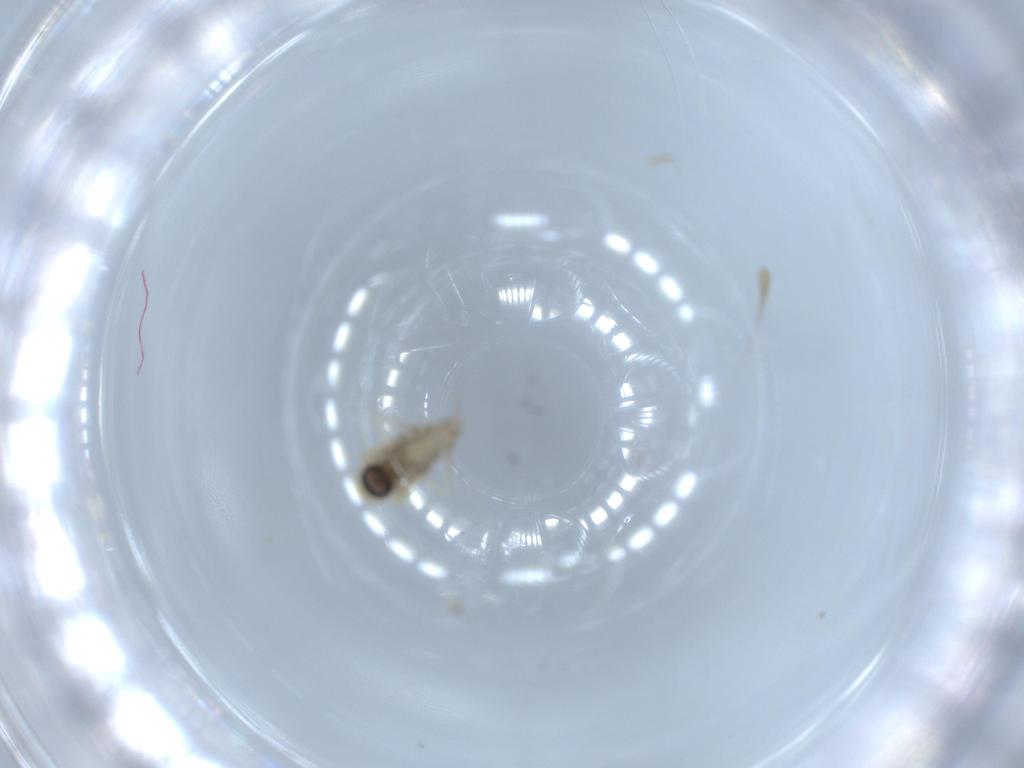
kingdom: Animalia
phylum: Arthropoda
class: Insecta
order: Diptera
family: Ceratopogonidae
